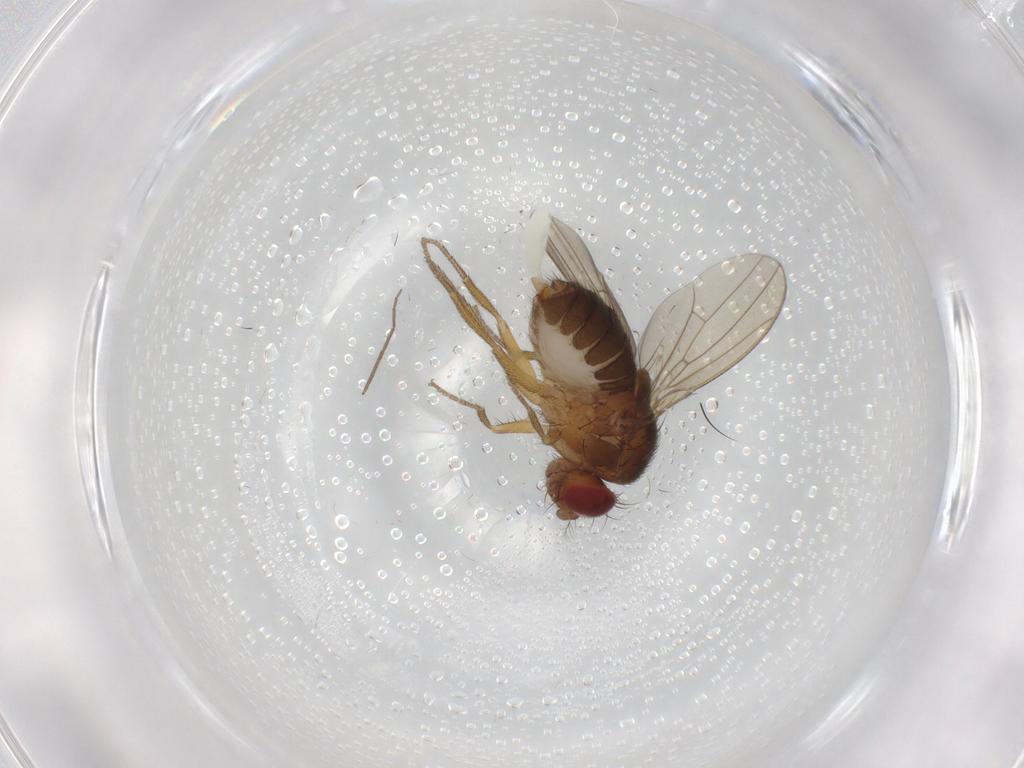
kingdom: Animalia
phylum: Arthropoda
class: Insecta
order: Diptera
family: Drosophilidae
